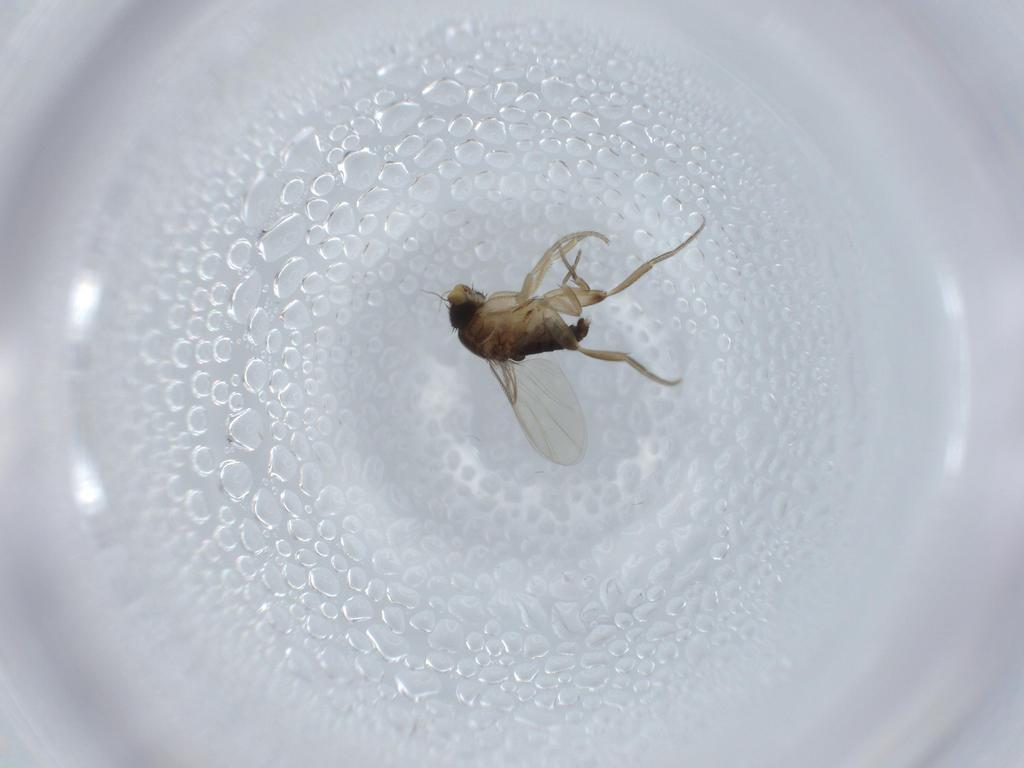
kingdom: Animalia
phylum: Arthropoda
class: Insecta
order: Diptera
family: Phoridae
